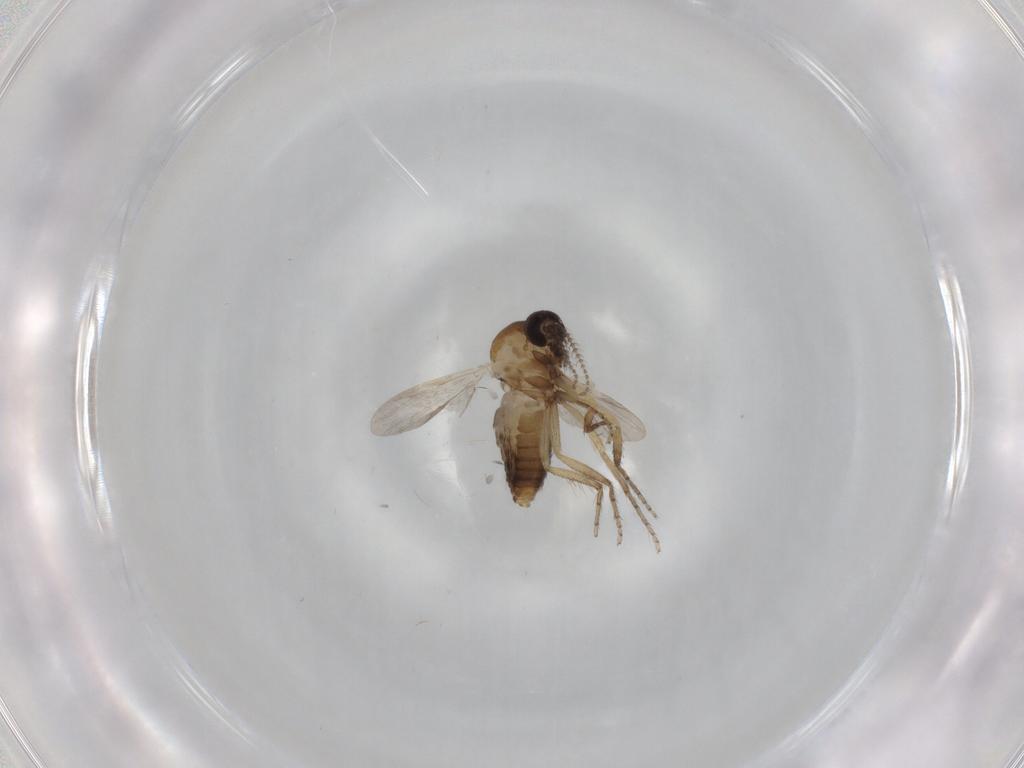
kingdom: Animalia
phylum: Arthropoda
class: Insecta
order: Diptera
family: Ceratopogonidae
